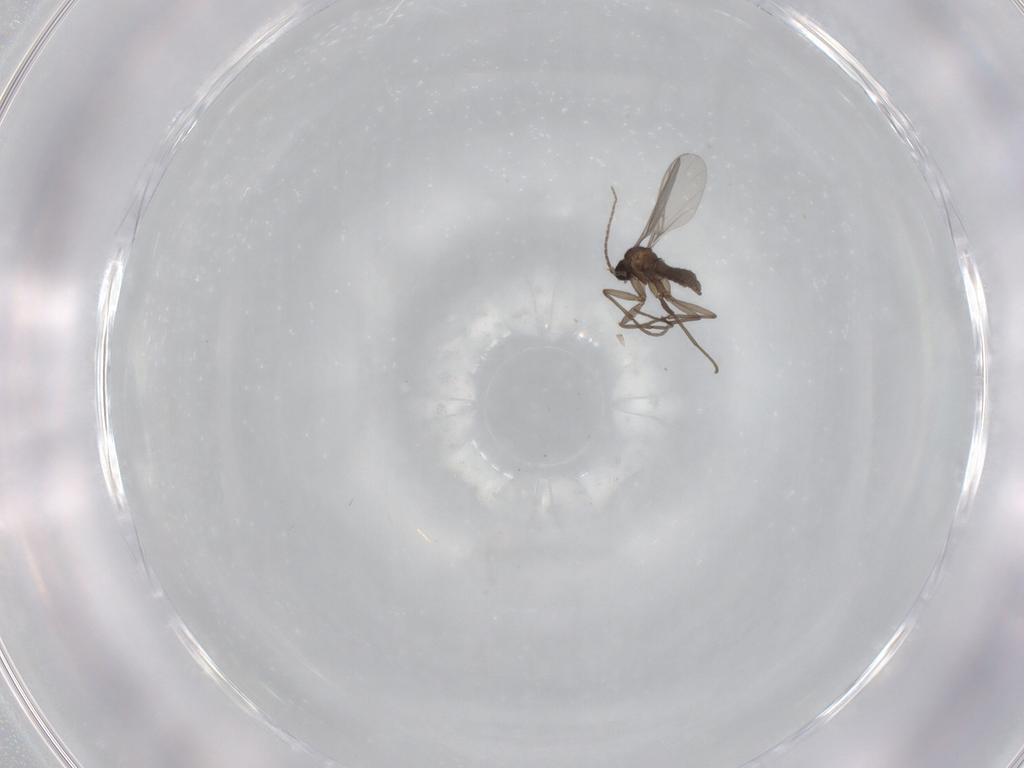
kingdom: Animalia
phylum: Arthropoda
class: Insecta
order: Diptera
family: Sciaridae
